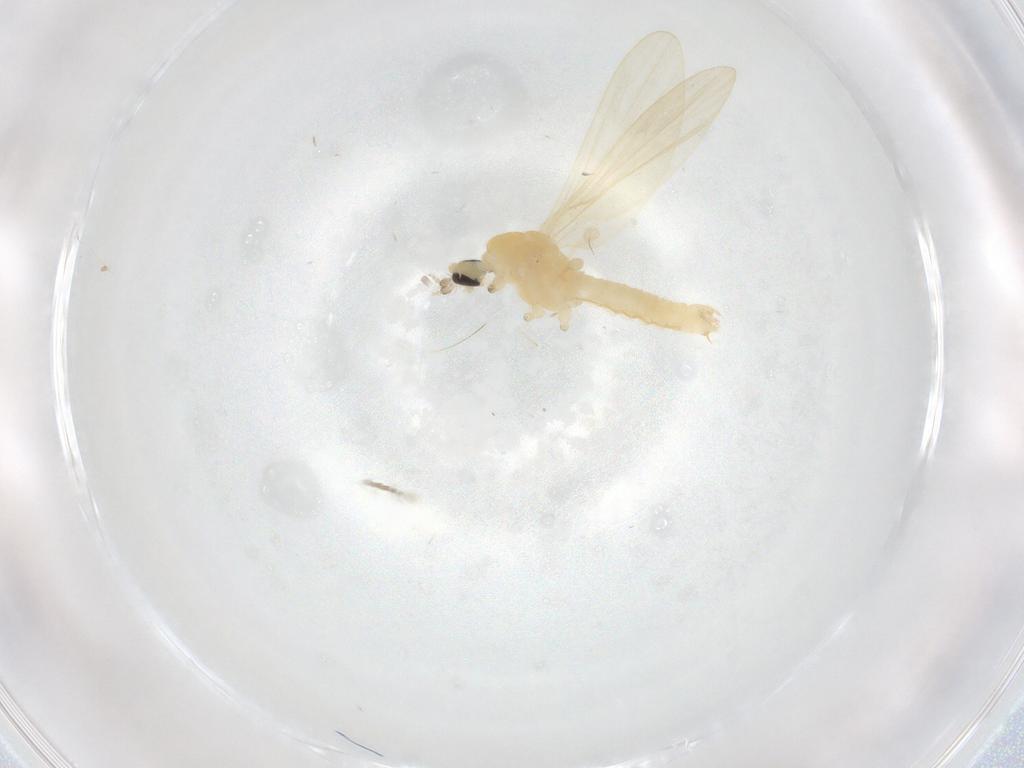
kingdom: Animalia
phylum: Arthropoda
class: Insecta
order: Diptera
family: Limoniidae
